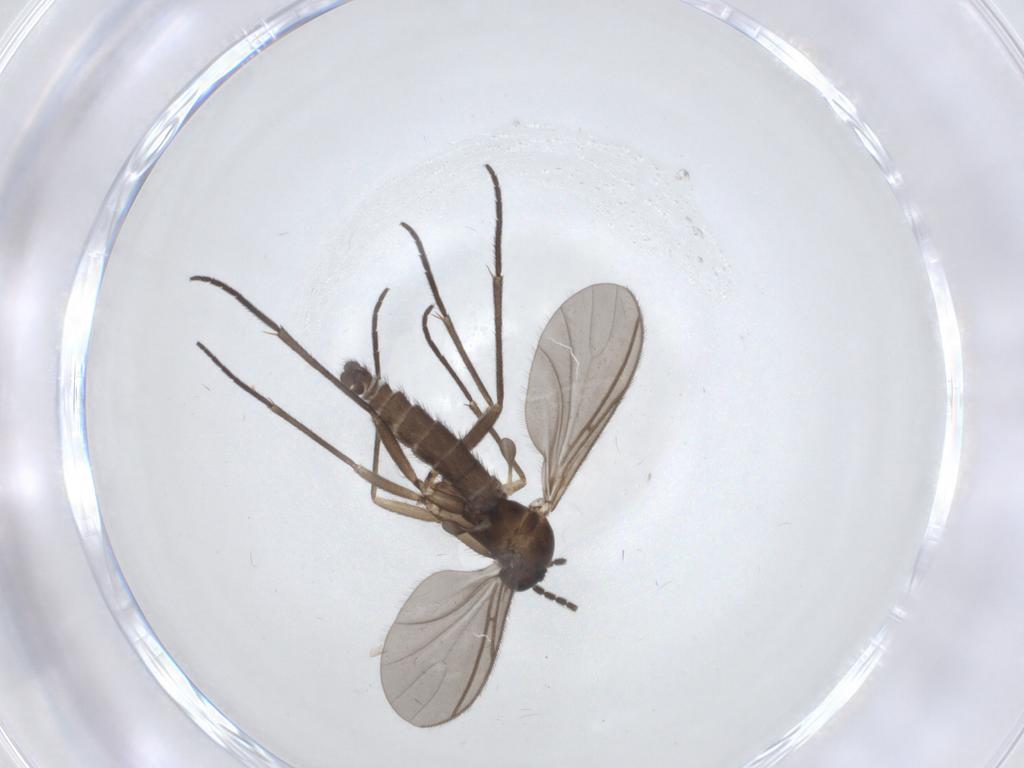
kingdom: Animalia
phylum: Arthropoda
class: Insecta
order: Diptera
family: Sciaridae
